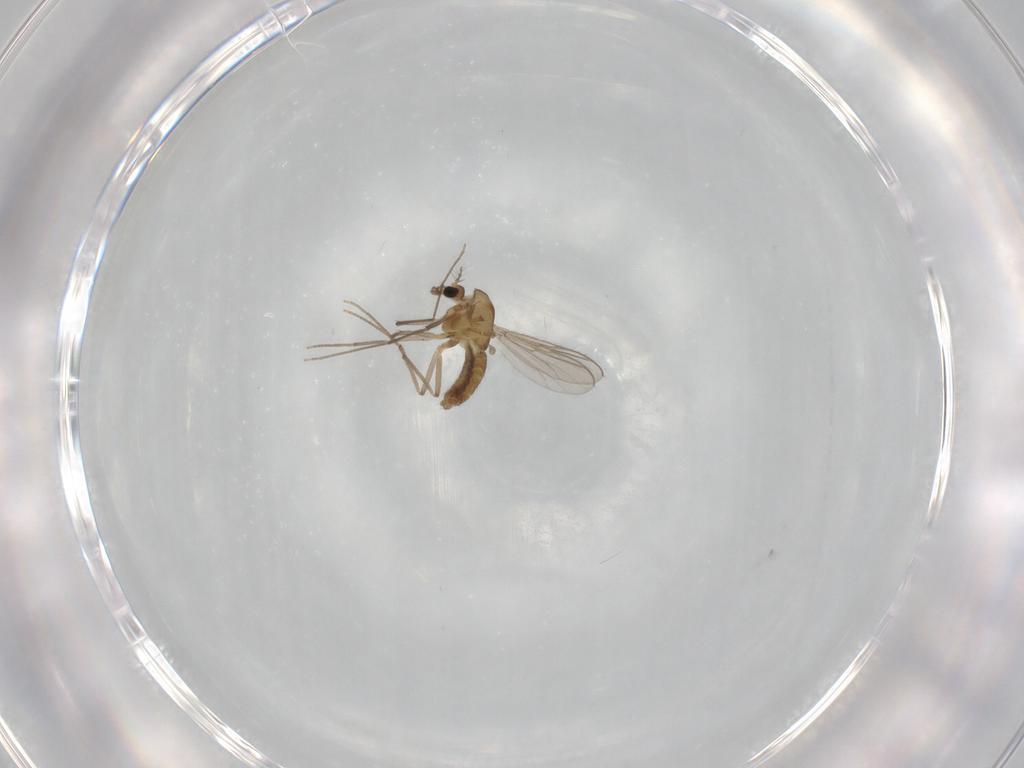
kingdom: Animalia
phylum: Arthropoda
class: Insecta
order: Diptera
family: Chironomidae
